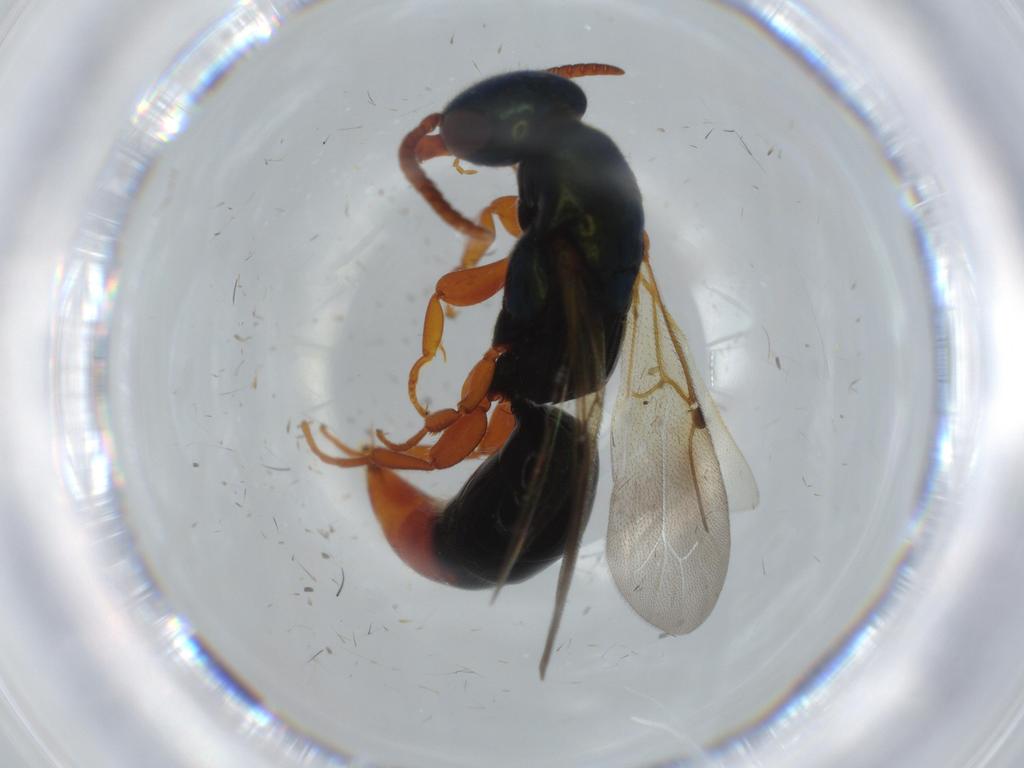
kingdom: Animalia
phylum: Arthropoda
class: Insecta
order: Hymenoptera
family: Bethylidae
